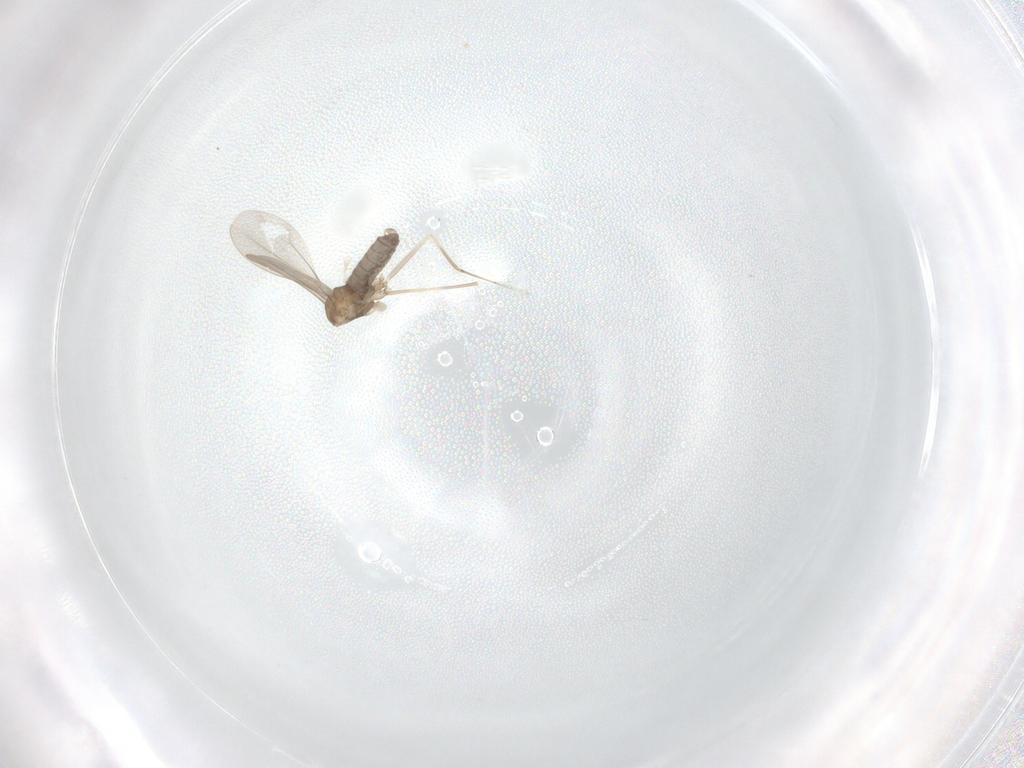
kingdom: Animalia
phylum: Arthropoda
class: Insecta
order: Diptera
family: Cecidomyiidae
